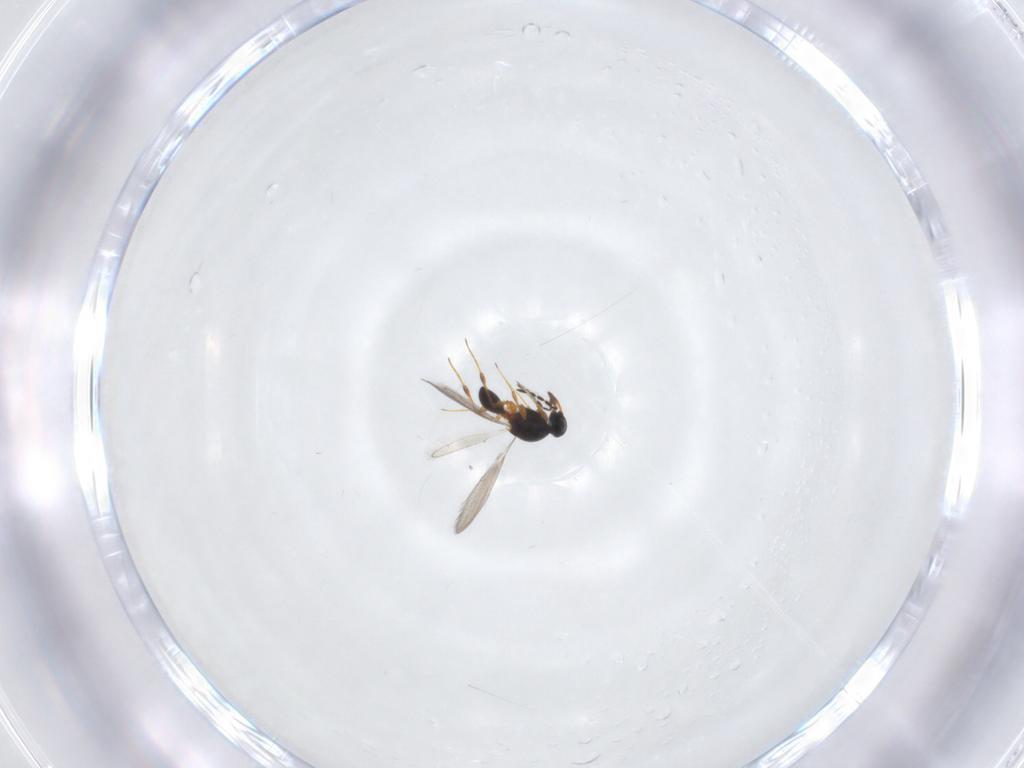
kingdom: Animalia
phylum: Arthropoda
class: Insecta
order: Hymenoptera
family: Platygastridae
